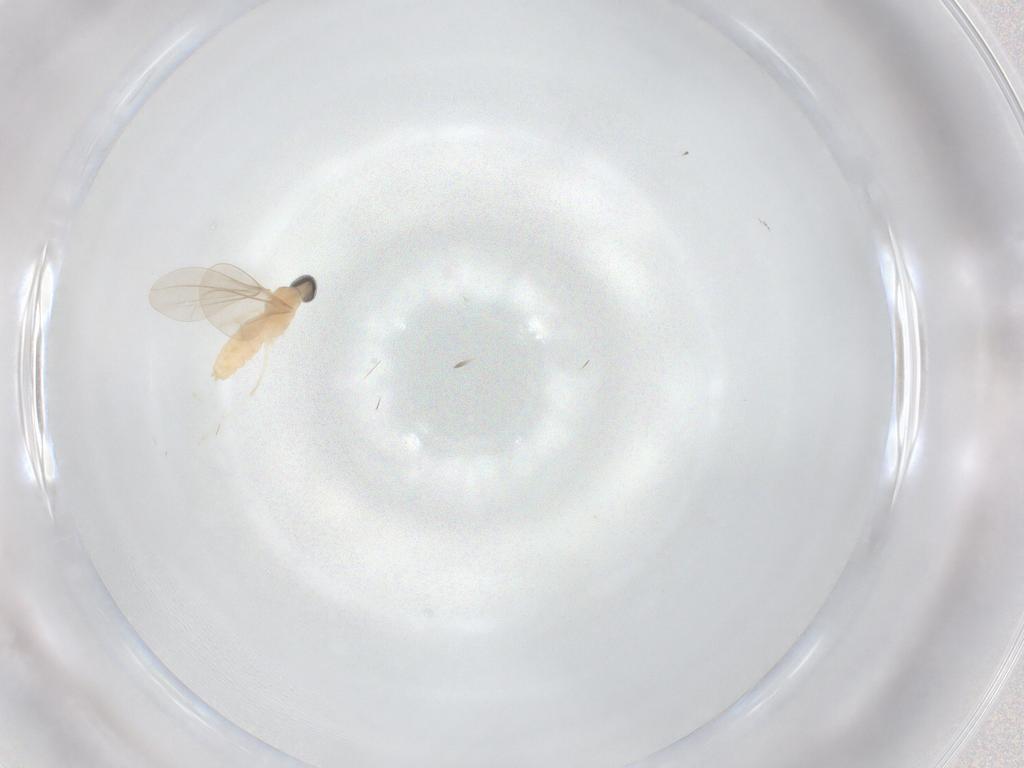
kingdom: Animalia
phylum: Arthropoda
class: Insecta
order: Diptera
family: Cecidomyiidae
